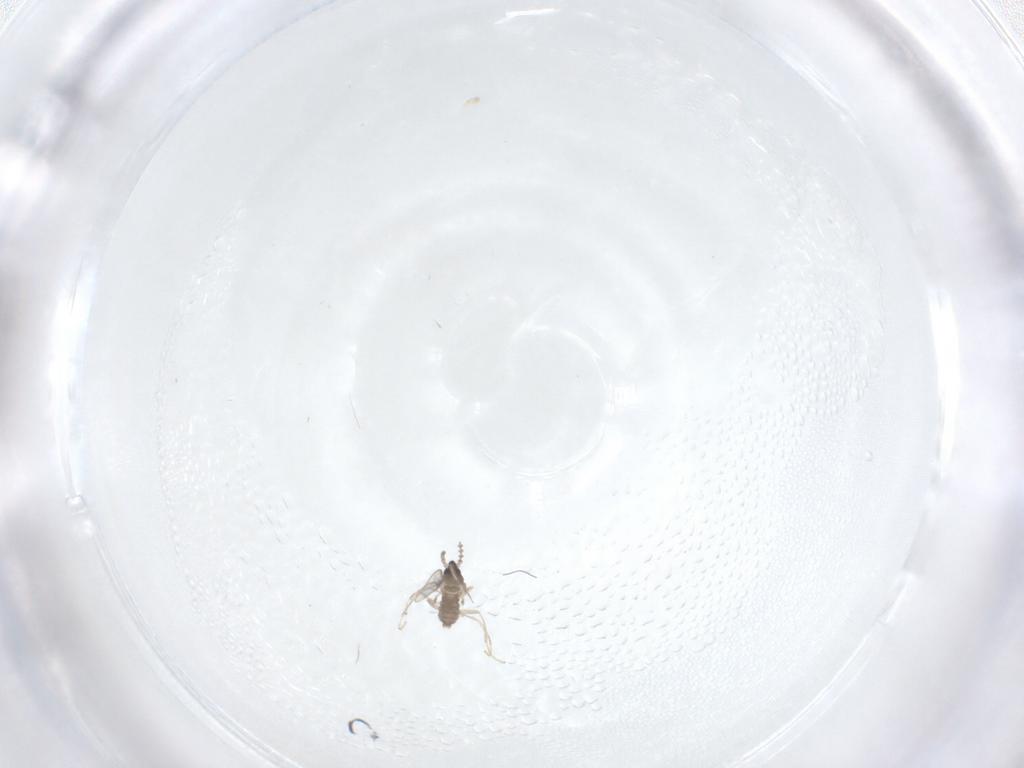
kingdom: Animalia
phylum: Arthropoda
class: Insecta
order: Diptera
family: Cecidomyiidae
